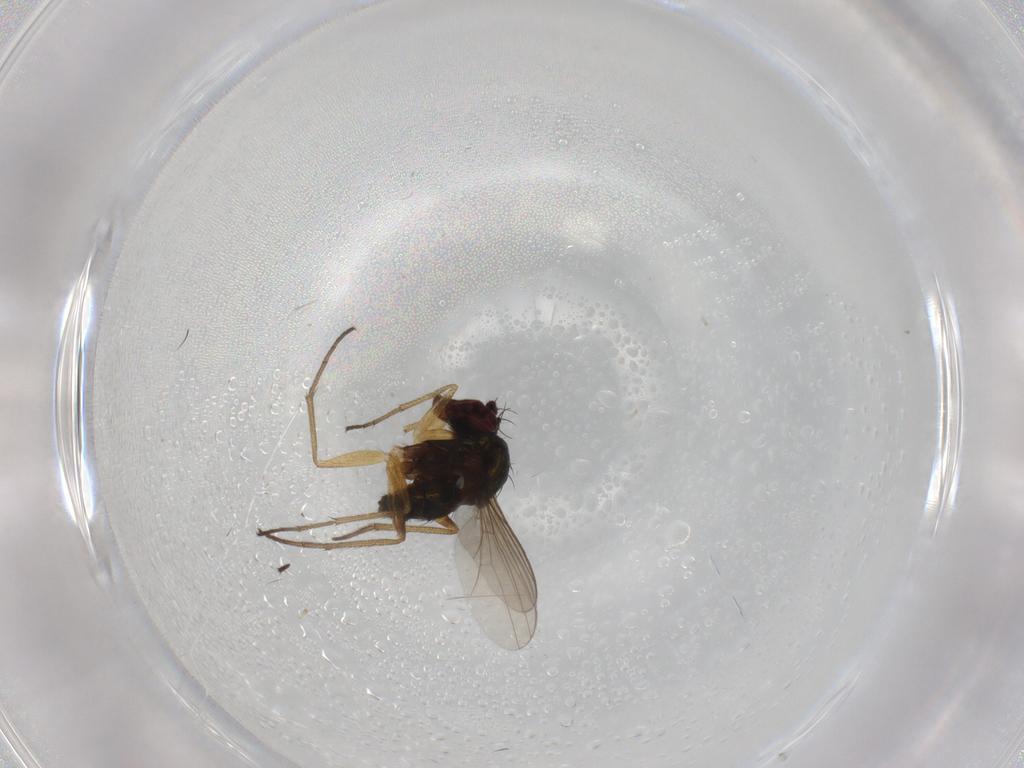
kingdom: Animalia
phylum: Arthropoda
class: Insecta
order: Diptera
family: Dolichopodidae
